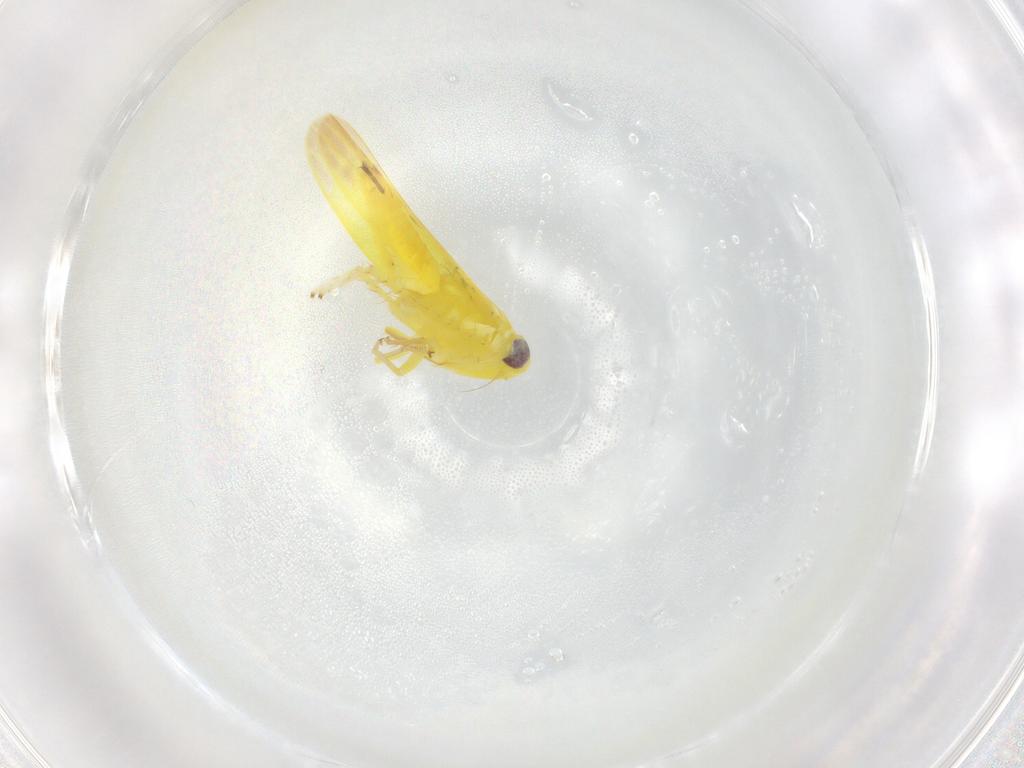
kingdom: Animalia
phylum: Arthropoda
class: Insecta
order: Hemiptera
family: Cicadellidae
